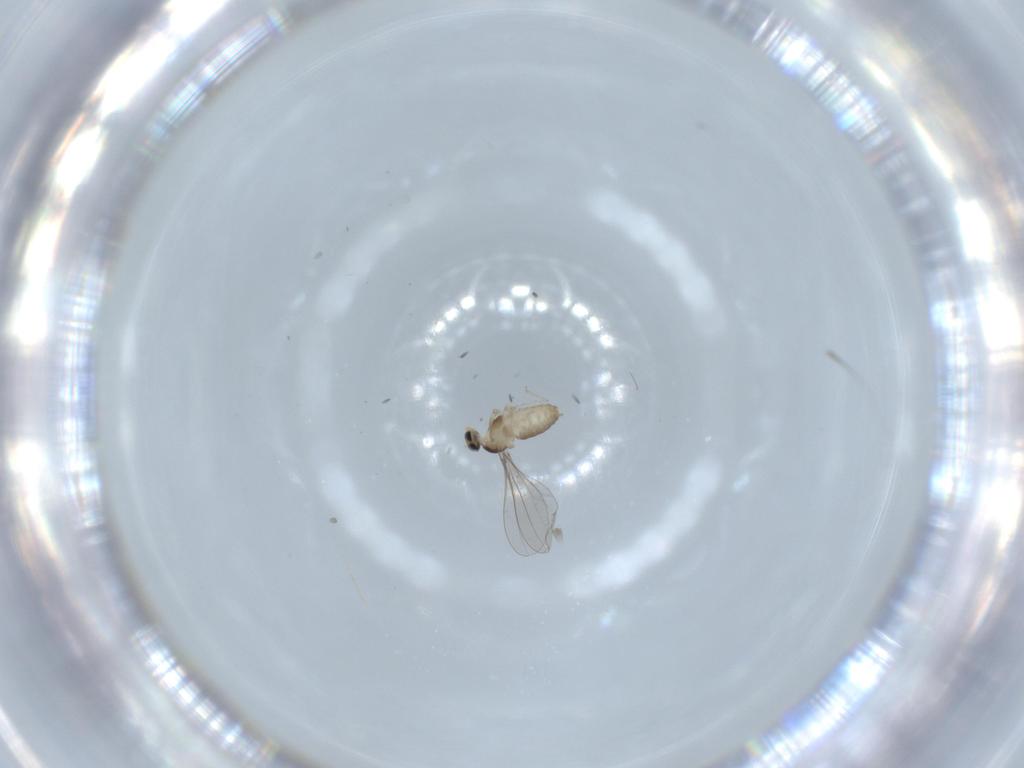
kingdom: Animalia
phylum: Arthropoda
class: Insecta
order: Diptera
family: Cecidomyiidae
